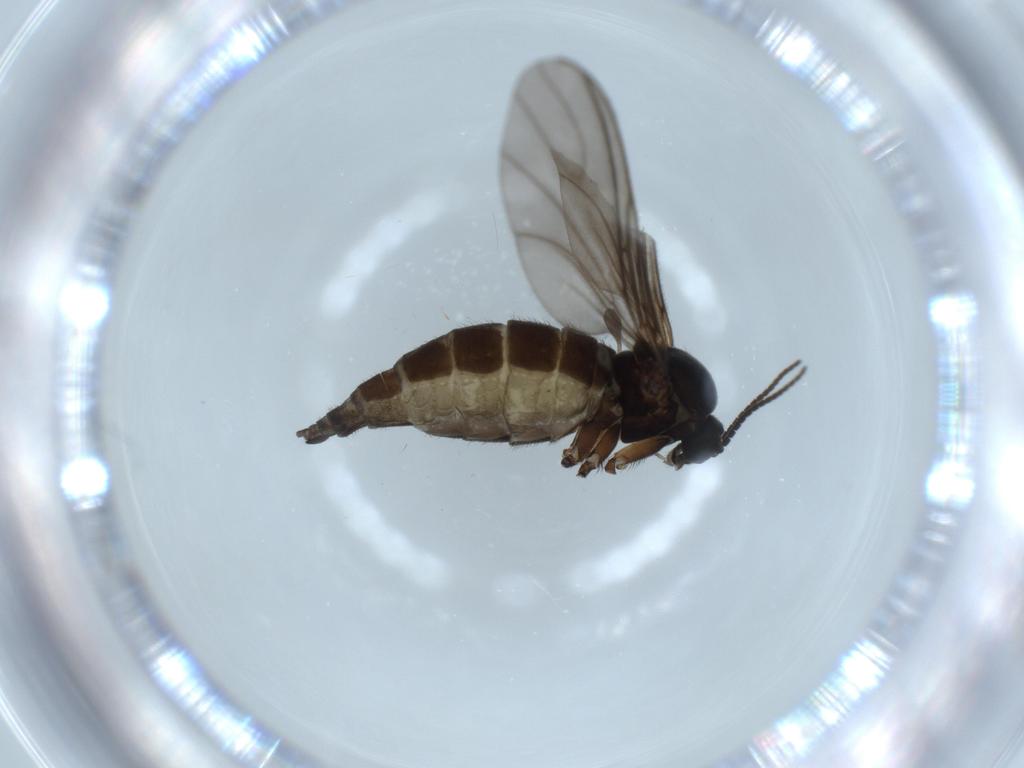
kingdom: Animalia
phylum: Arthropoda
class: Insecta
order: Diptera
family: Sciaridae
